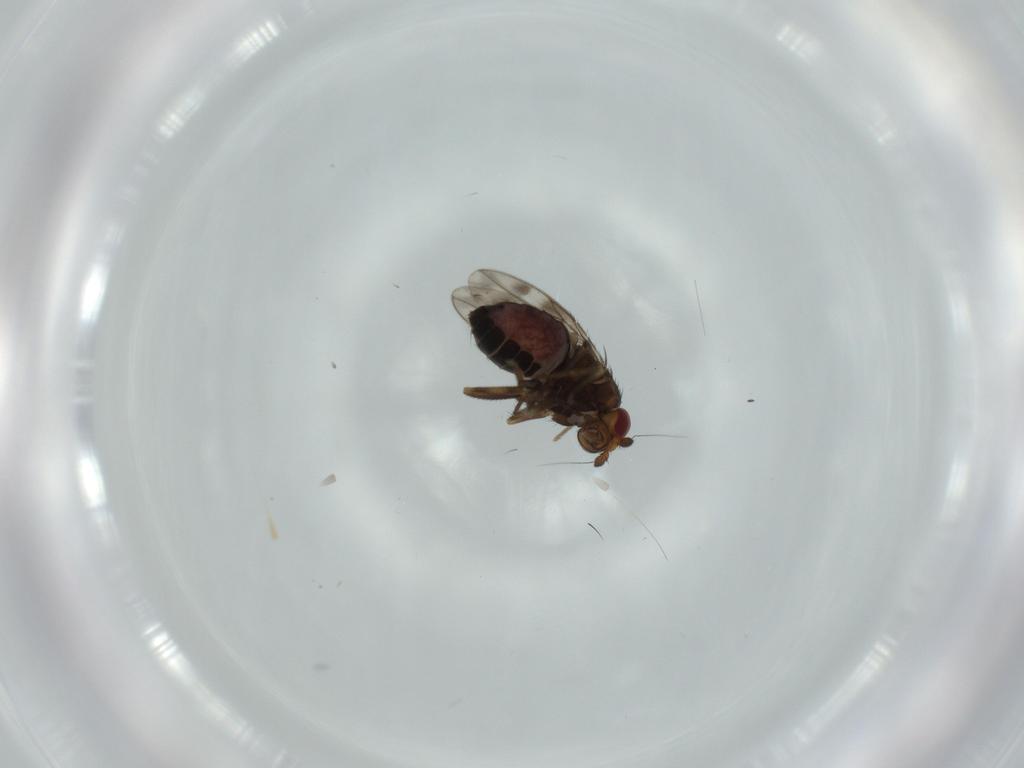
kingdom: Animalia
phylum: Arthropoda
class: Insecta
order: Diptera
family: Sphaeroceridae
